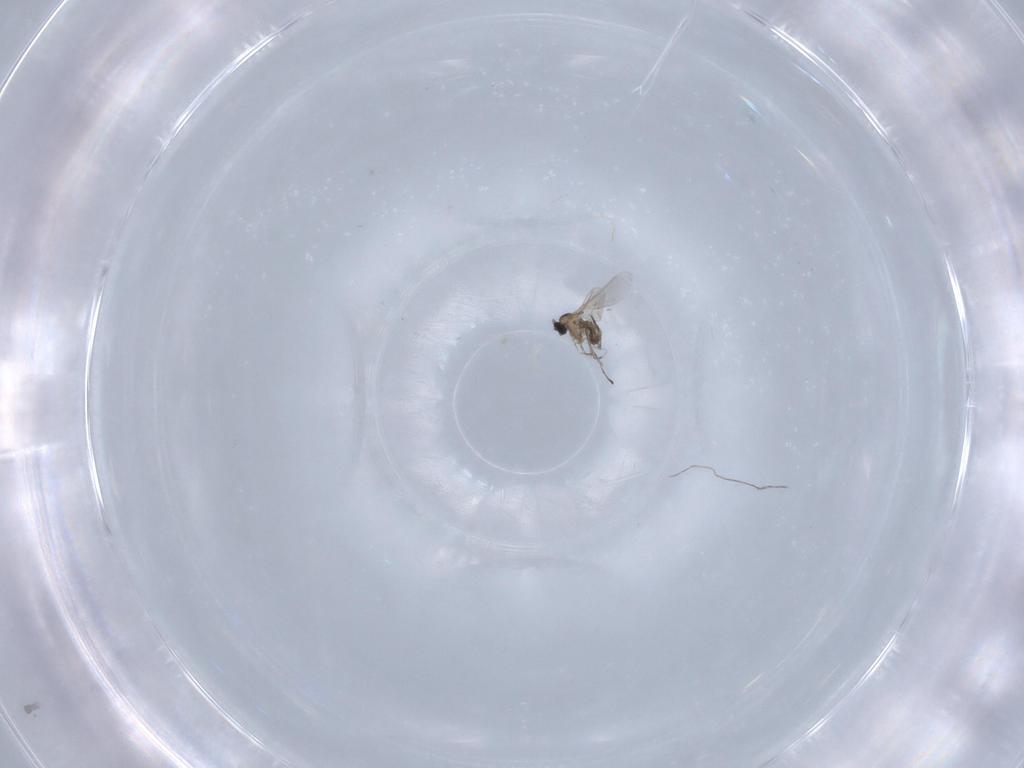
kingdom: Animalia
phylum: Arthropoda
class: Insecta
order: Diptera
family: Cecidomyiidae
